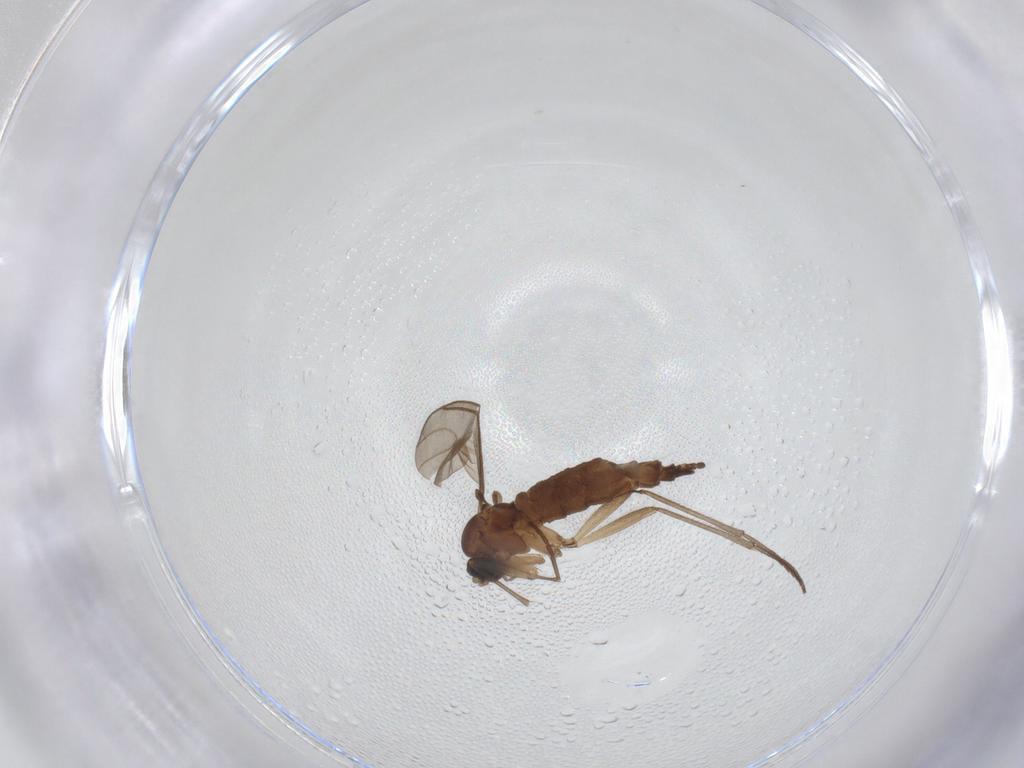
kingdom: Animalia
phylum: Arthropoda
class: Insecta
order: Diptera
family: Sciaridae
